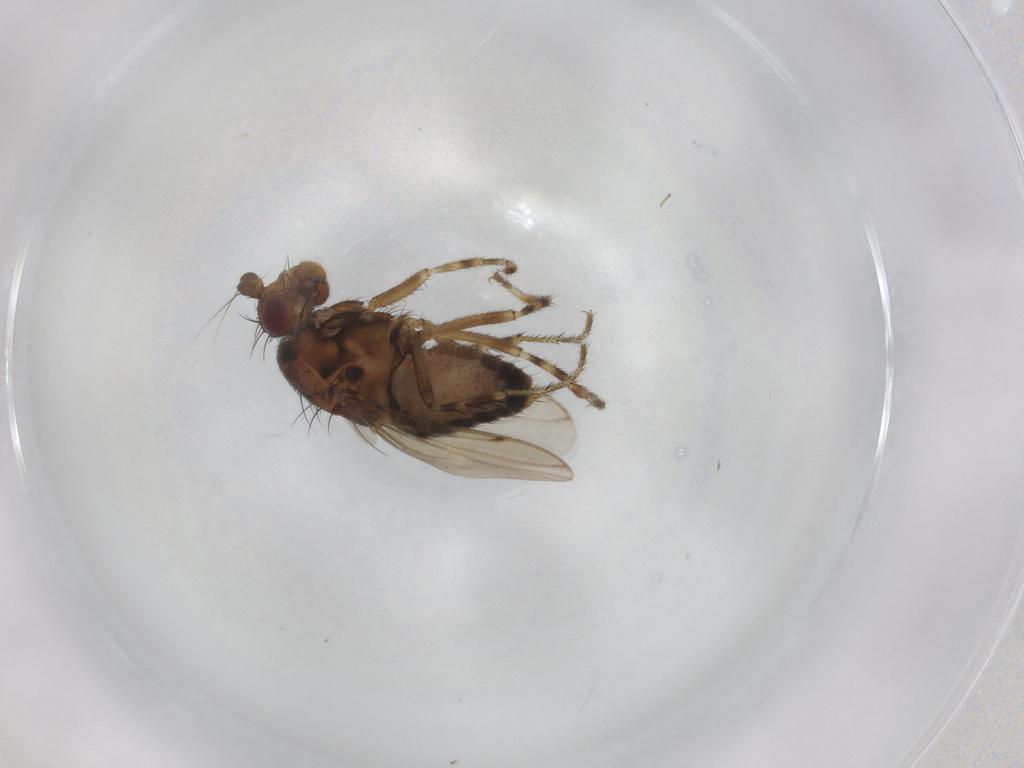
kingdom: Animalia
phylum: Arthropoda
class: Insecta
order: Diptera
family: Sphaeroceridae
